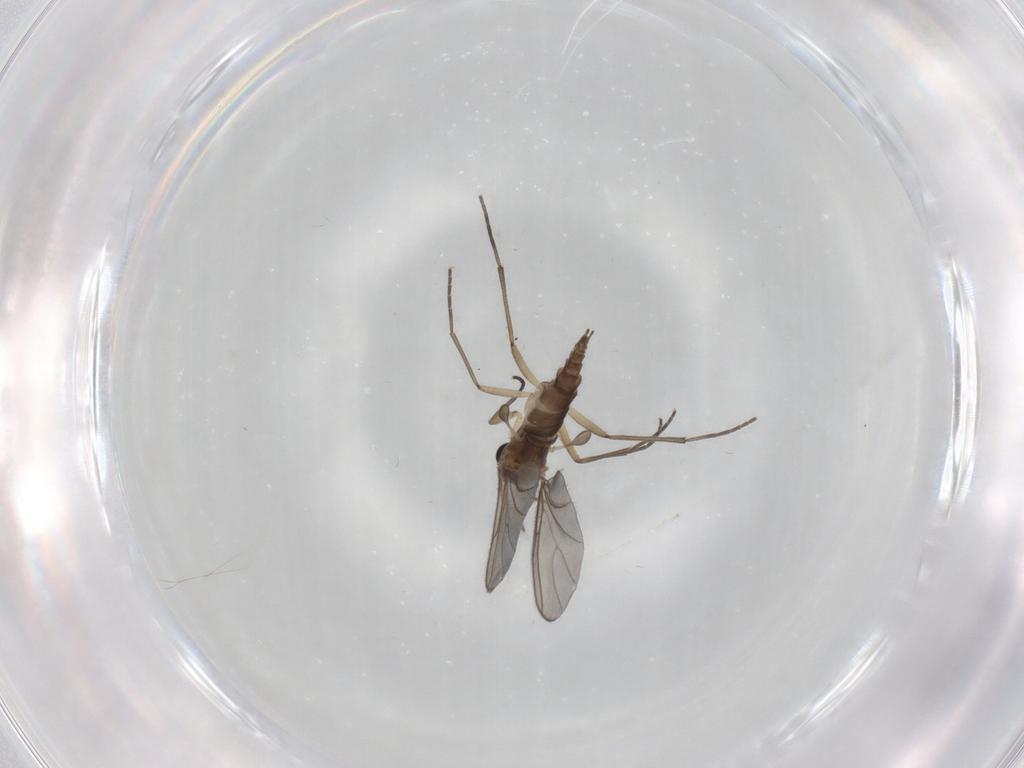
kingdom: Animalia
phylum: Arthropoda
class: Insecta
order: Diptera
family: Sciaridae
